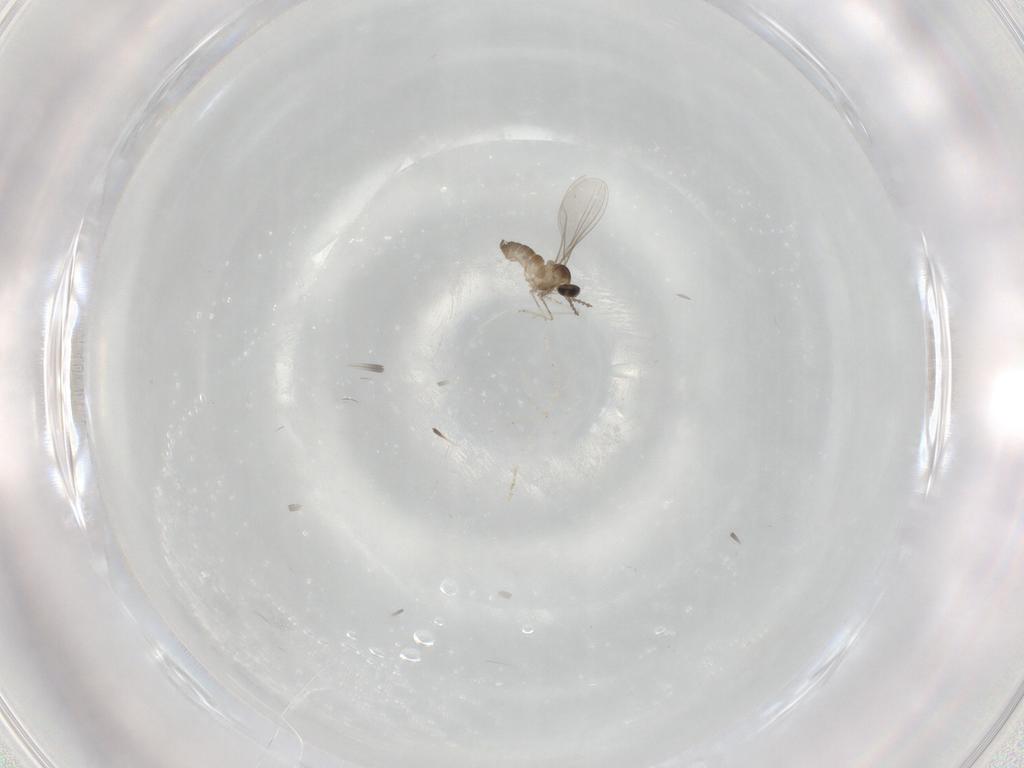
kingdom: Animalia
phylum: Arthropoda
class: Insecta
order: Diptera
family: Cecidomyiidae
